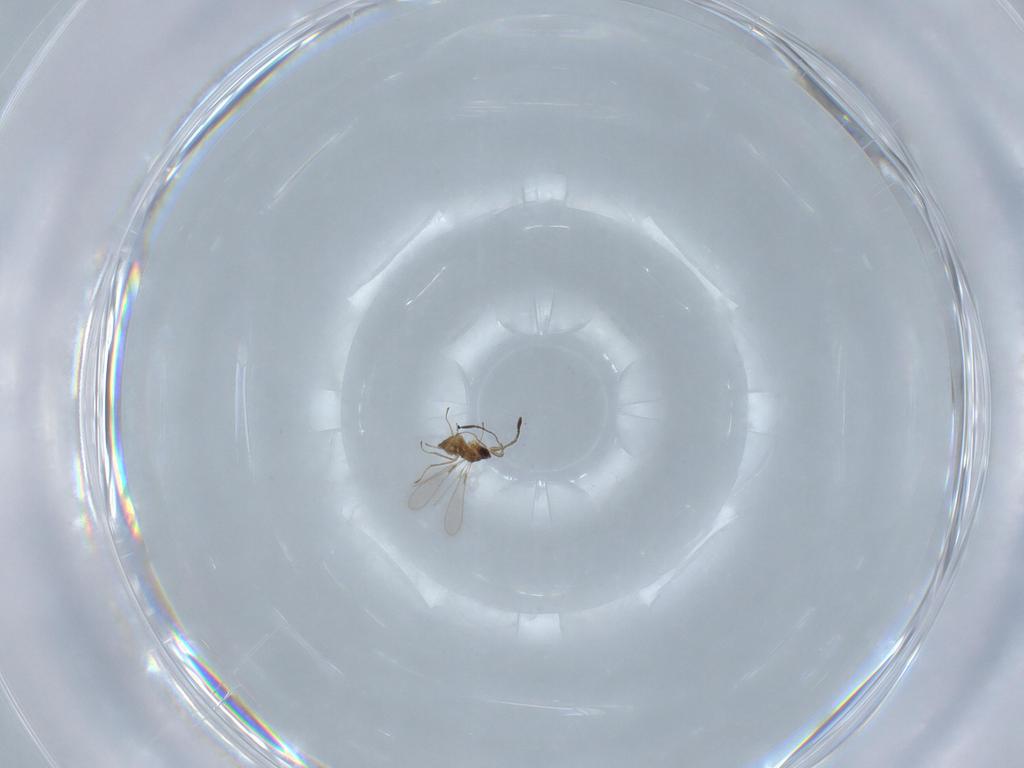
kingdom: Animalia
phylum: Arthropoda
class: Insecta
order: Hymenoptera
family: Mymaridae
